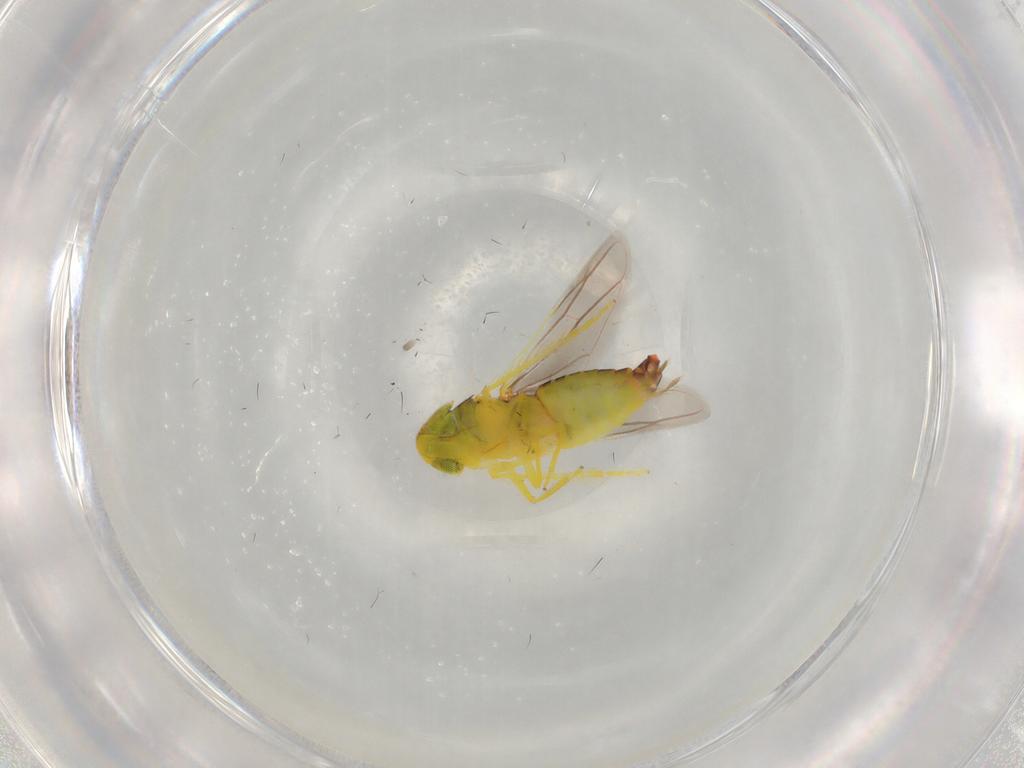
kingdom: Animalia
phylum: Arthropoda
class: Insecta
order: Hemiptera
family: Cicadellidae
